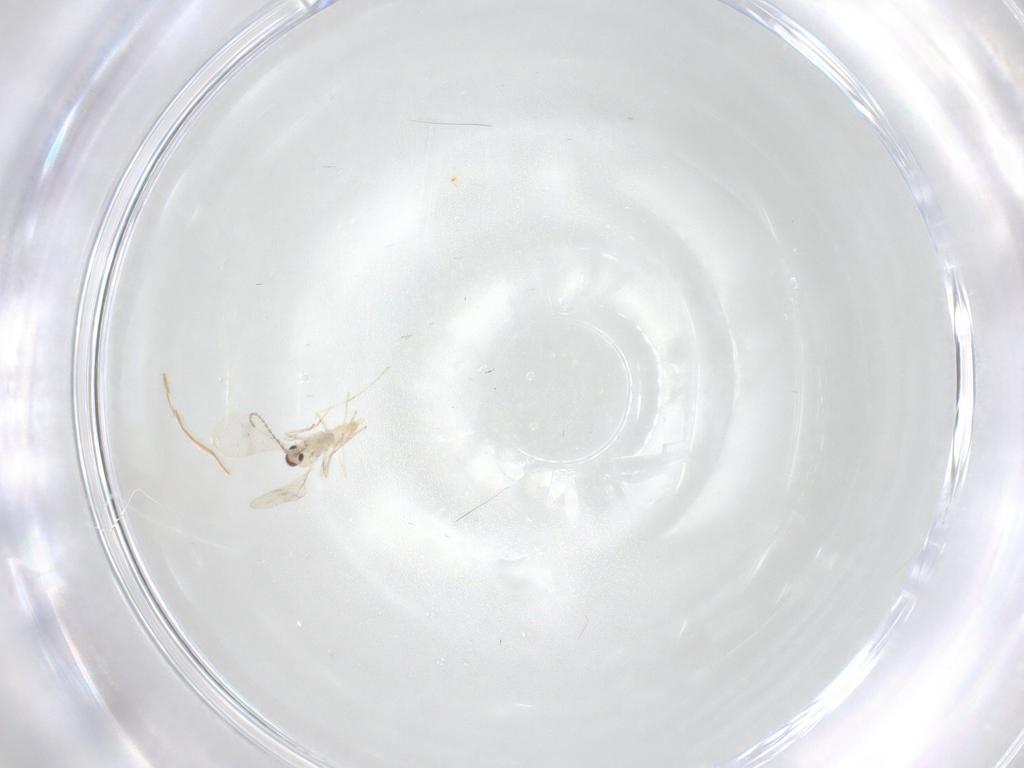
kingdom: Animalia
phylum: Arthropoda
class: Insecta
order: Diptera
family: Cecidomyiidae
